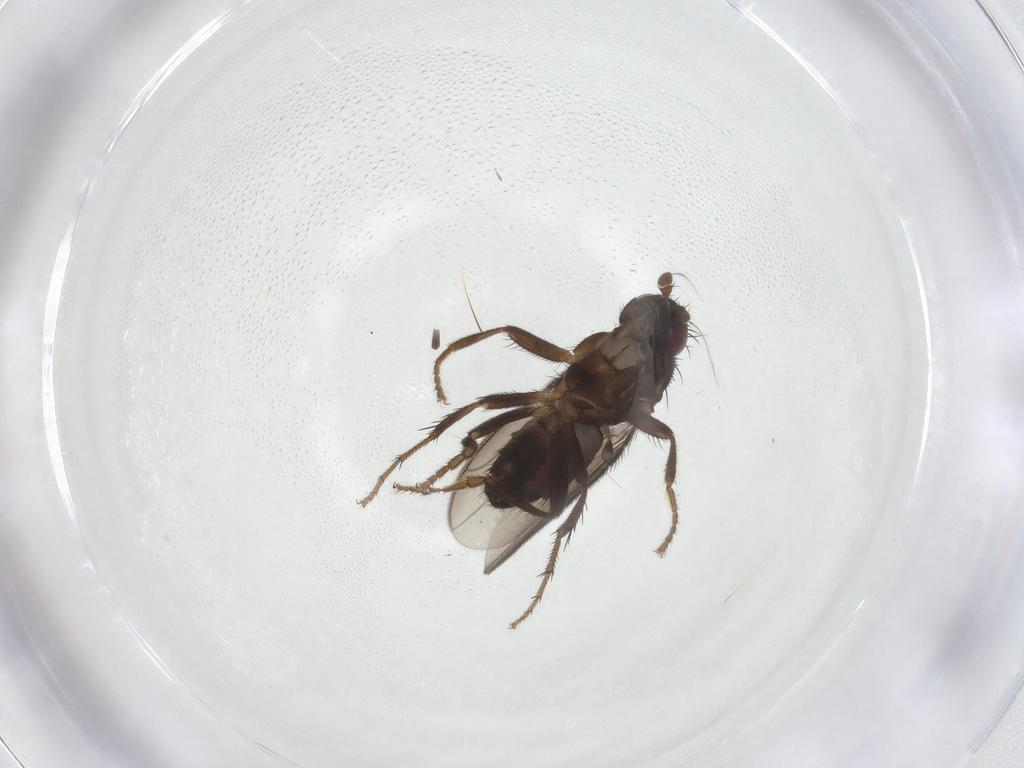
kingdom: Animalia
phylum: Arthropoda
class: Insecta
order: Diptera
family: Sphaeroceridae
